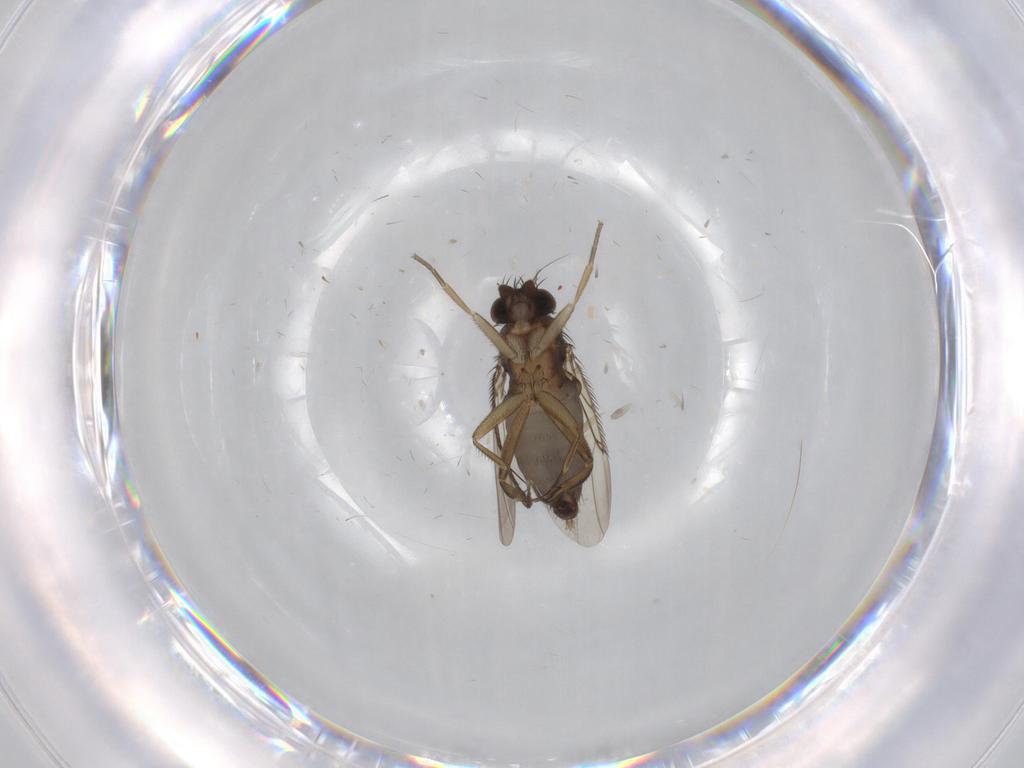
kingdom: Animalia
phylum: Arthropoda
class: Insecta
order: Diptera
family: Phoridae
